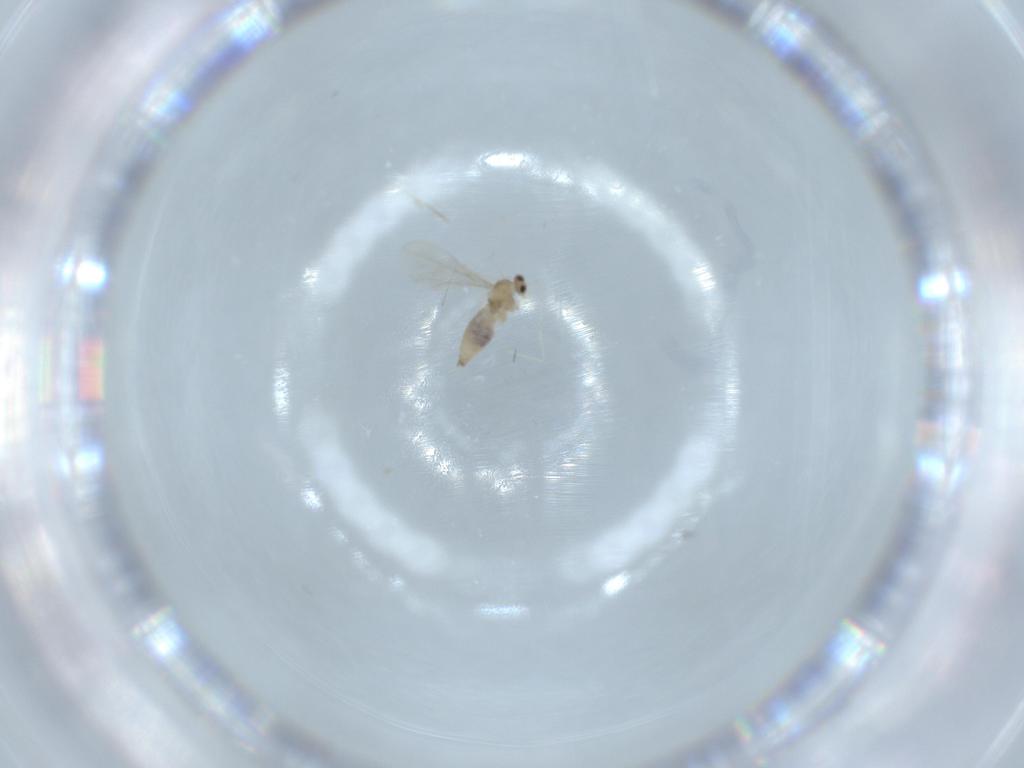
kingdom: Animalia
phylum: Arthropoda
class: Insecta
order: Diptera
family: Cecidomyiidae
